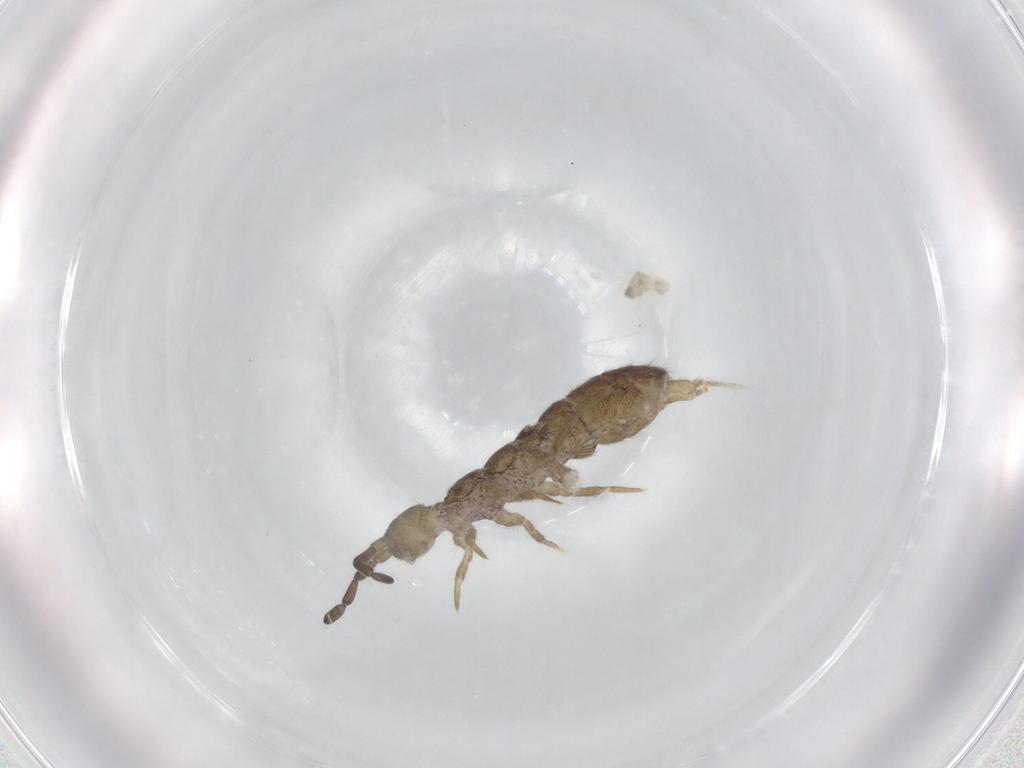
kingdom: Animalia
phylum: Arthropoda
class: Collembola
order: Entomobryomorpha
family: Isotomidae
